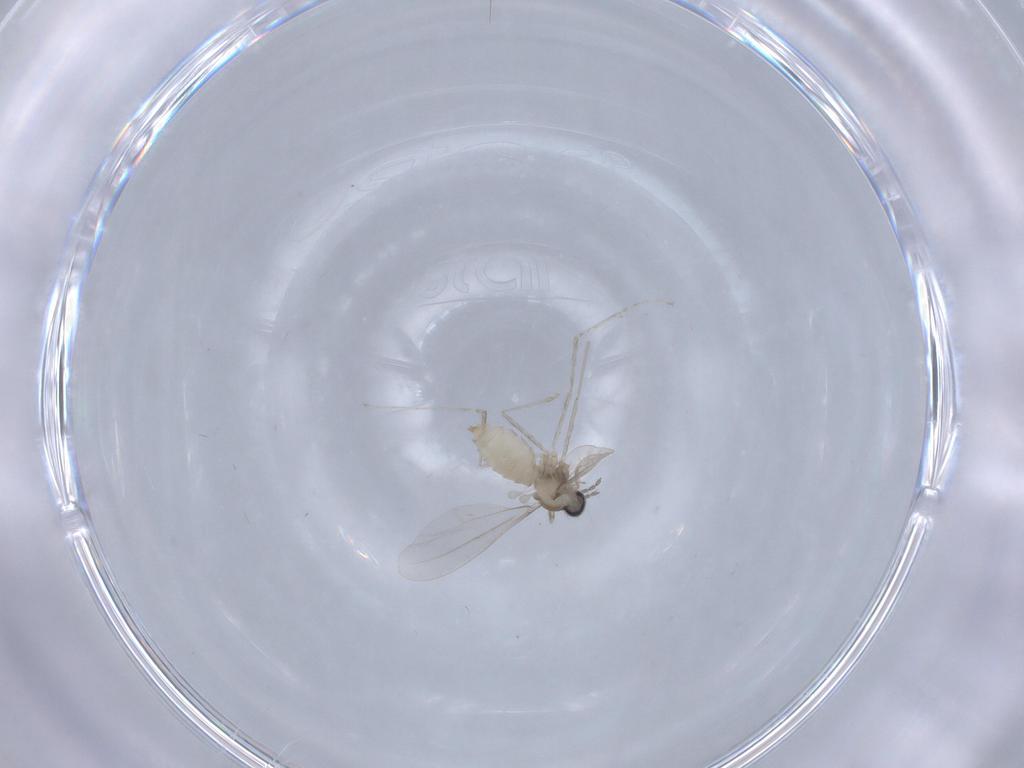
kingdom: Animalia
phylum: Arthropoda
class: Insecta
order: Diptera
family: Cecidomyiidae
